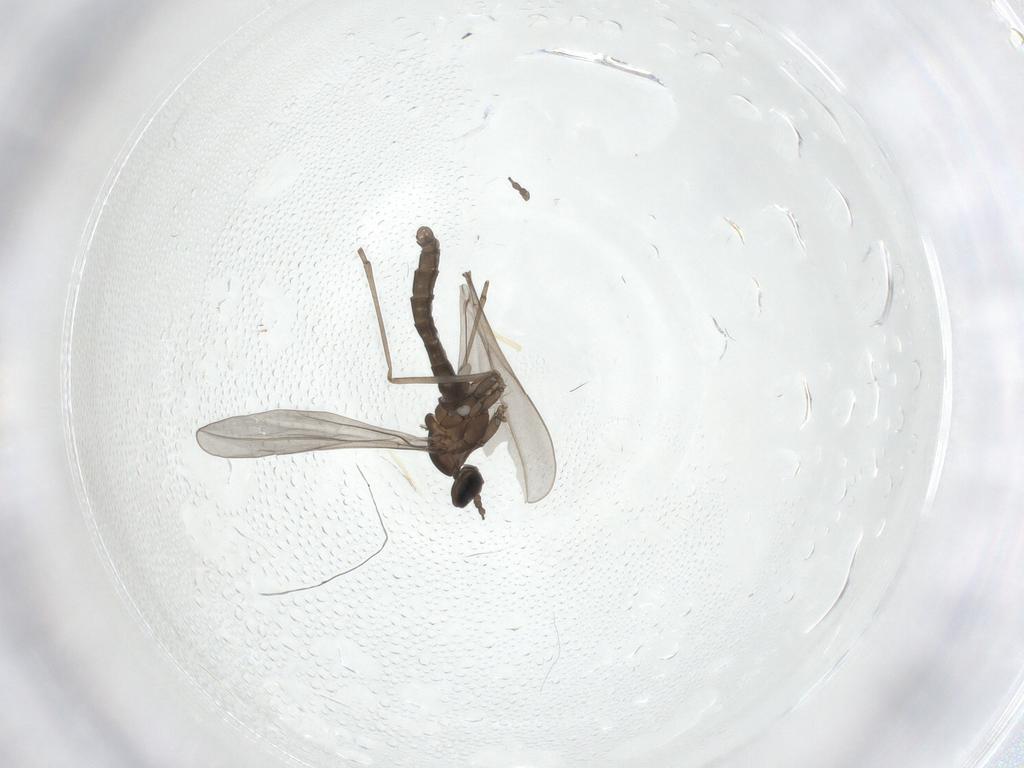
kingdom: Animalia
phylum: Arthropoda
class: Insecta
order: Diptera
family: Cecidomyiidae
